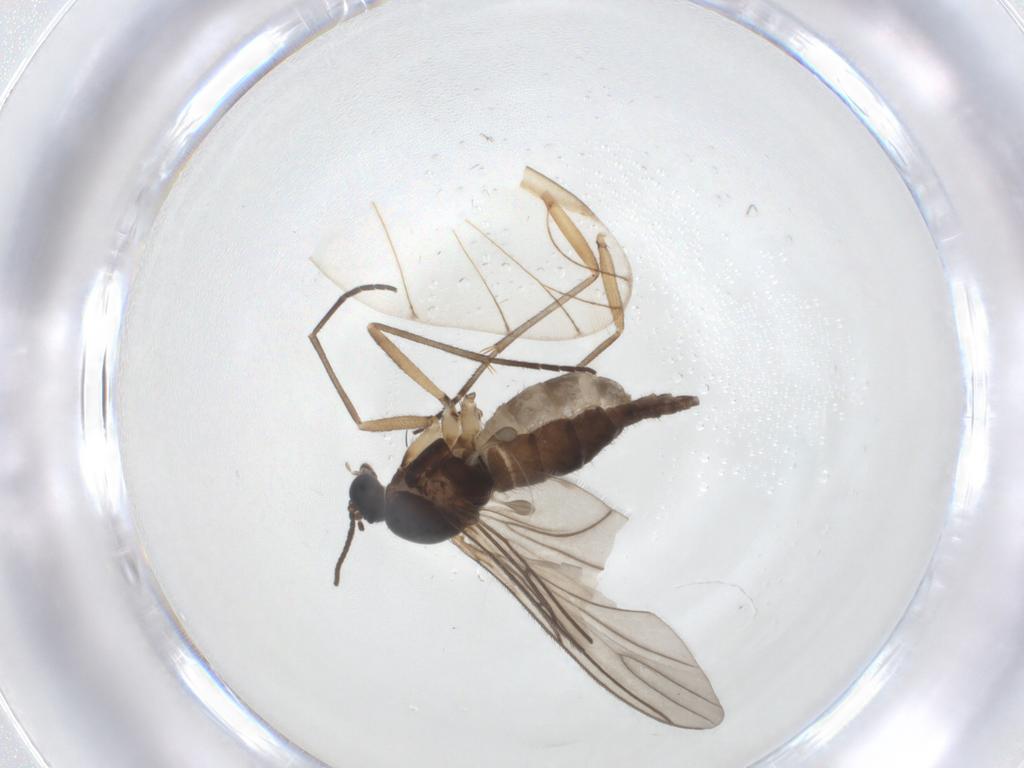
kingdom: Animalia
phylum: Arthropoda
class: Insecta
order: Diptera
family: Sciaridae
